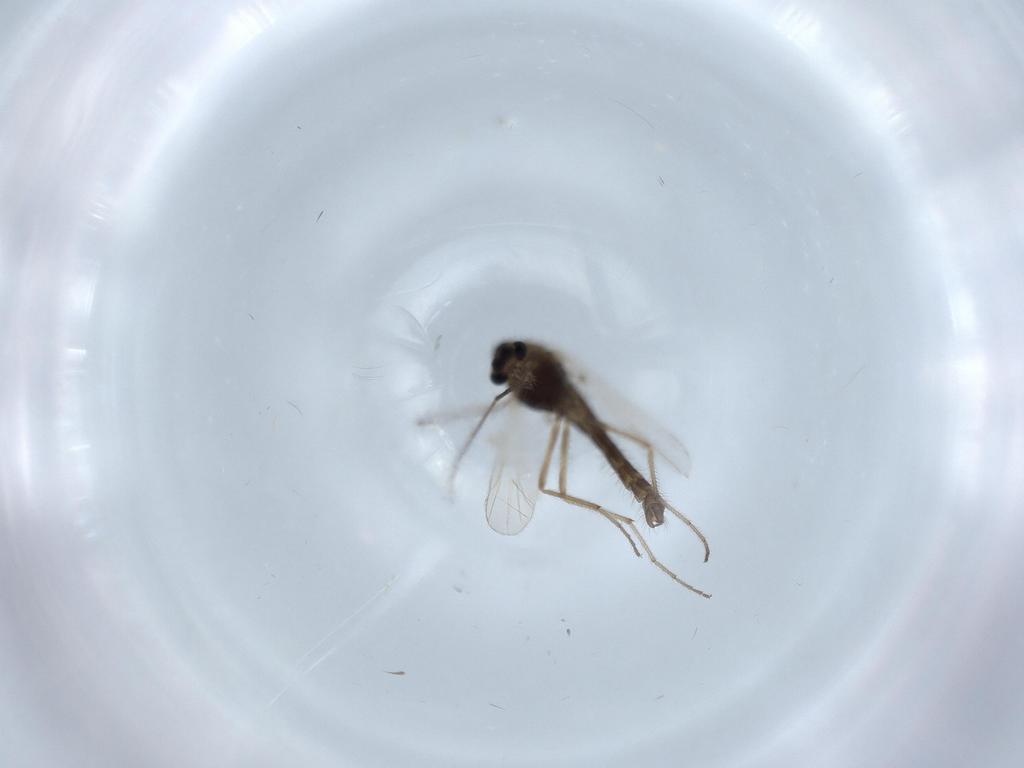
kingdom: Animalia
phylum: Arthropoda
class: Insecta
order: Diptera
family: Chironomidae
